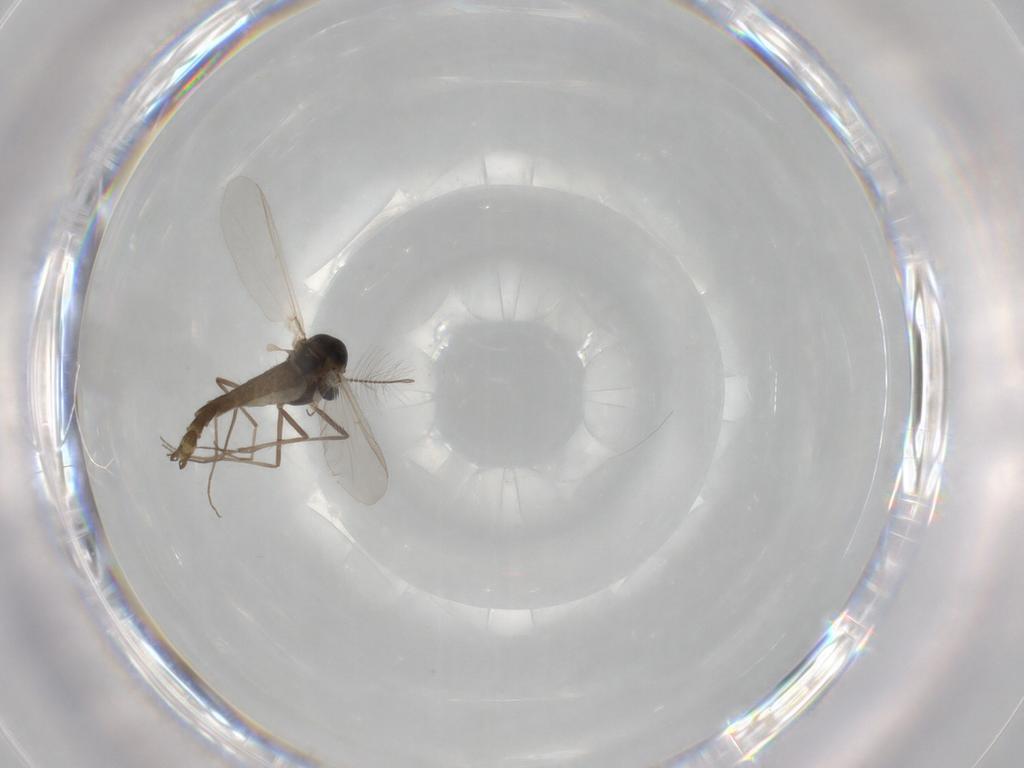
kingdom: Animalia
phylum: Arthropoda
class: Insecta
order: Diptera
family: Chironomidae
